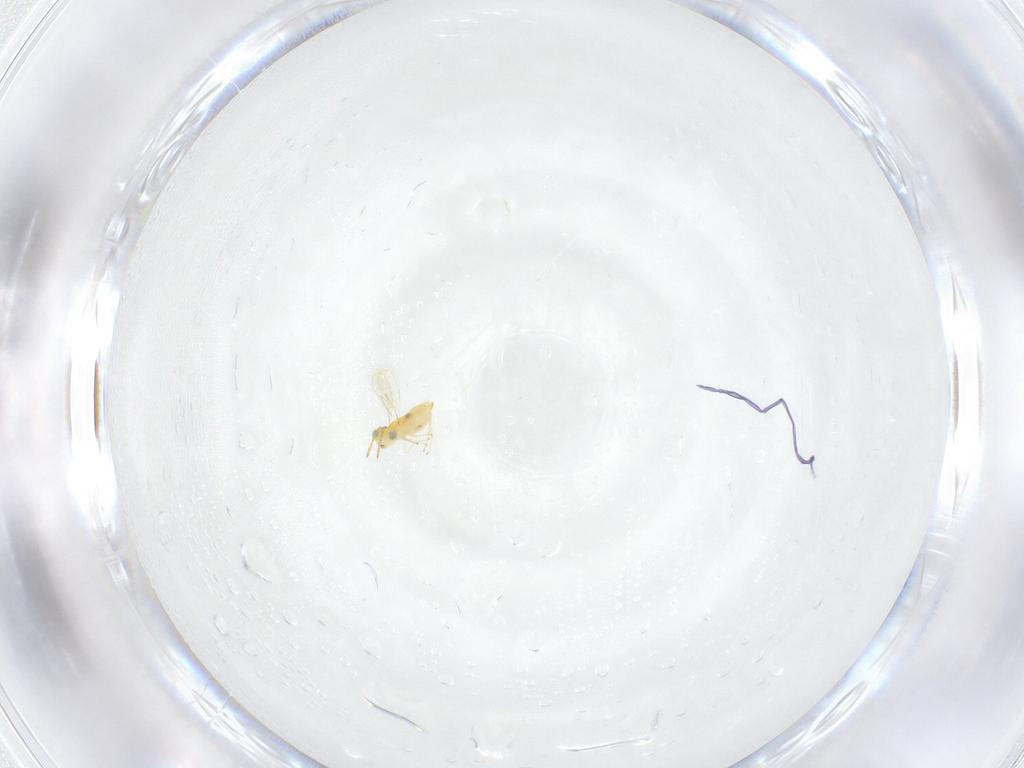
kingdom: Animalia
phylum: Arthropoda
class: Insecta
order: Hymenoptera
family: Aphelinidae
